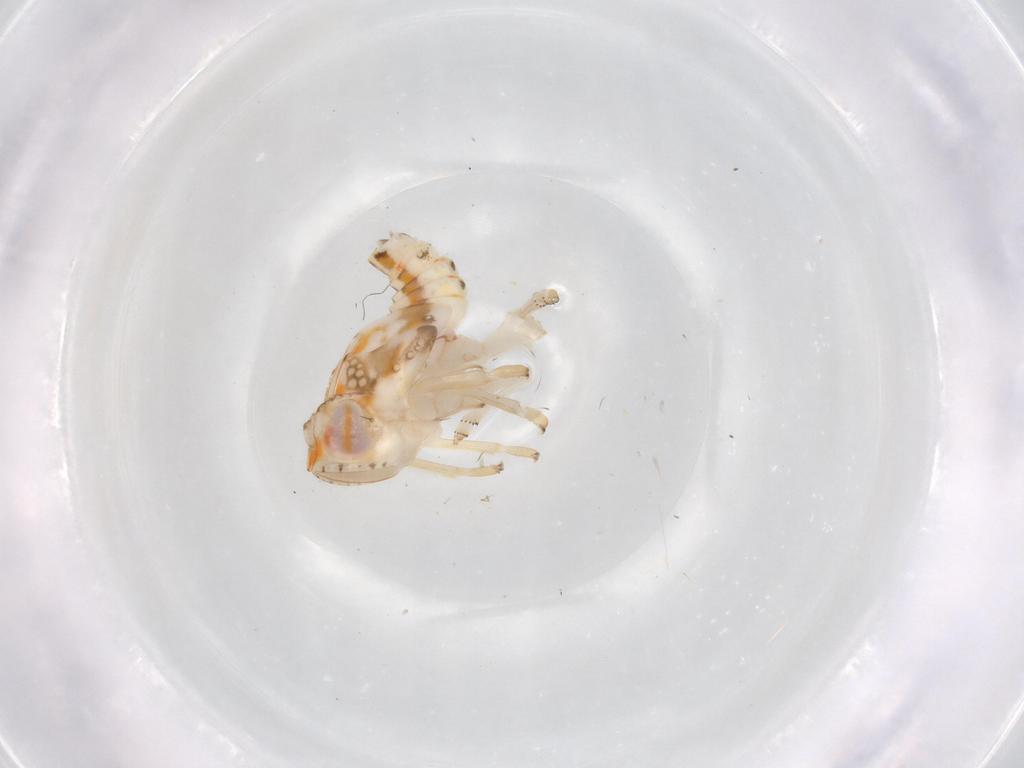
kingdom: Animalia
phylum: Arthropoda
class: Insecta
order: Hemiptera
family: Nogodinidae
